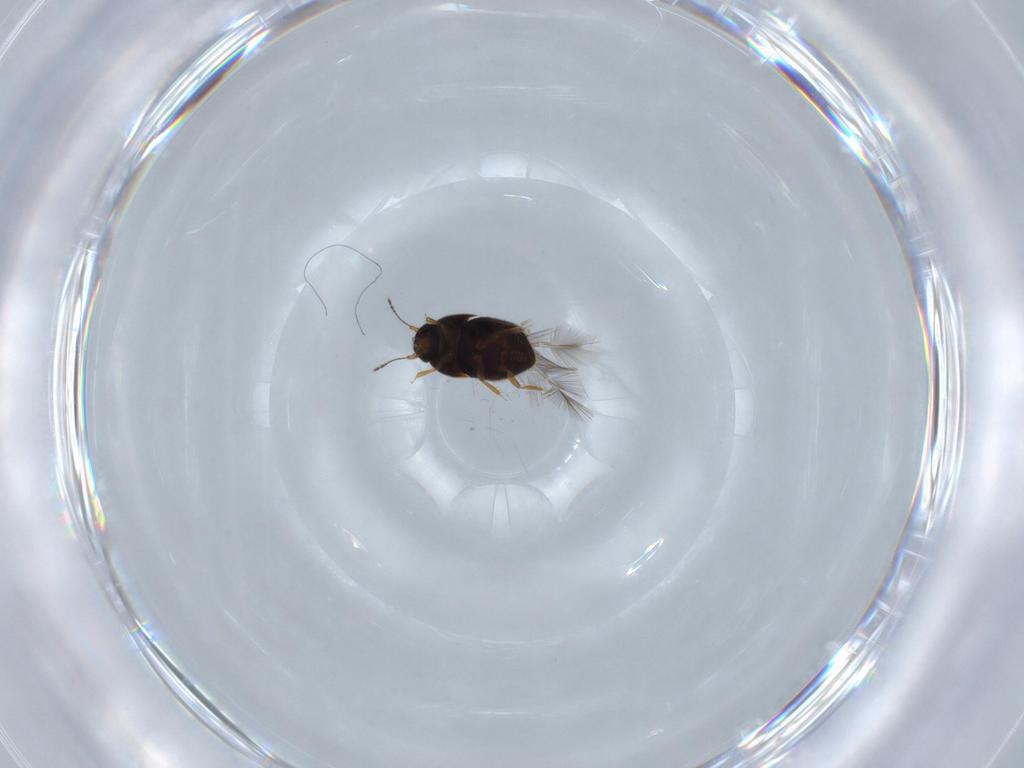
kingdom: Animalia
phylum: Arthropoda
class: Insecta
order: Coleoptera
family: Ptiliidae
